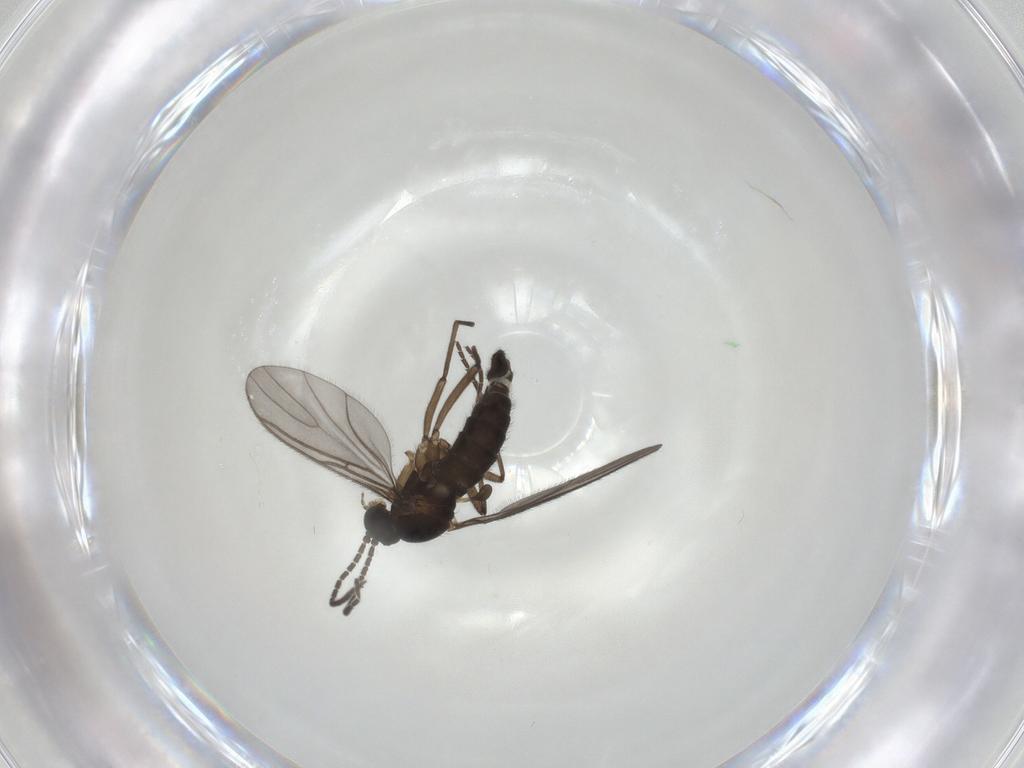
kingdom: Animalia
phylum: Arthropoda
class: Insecta
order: Diptera
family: Sciaridae
